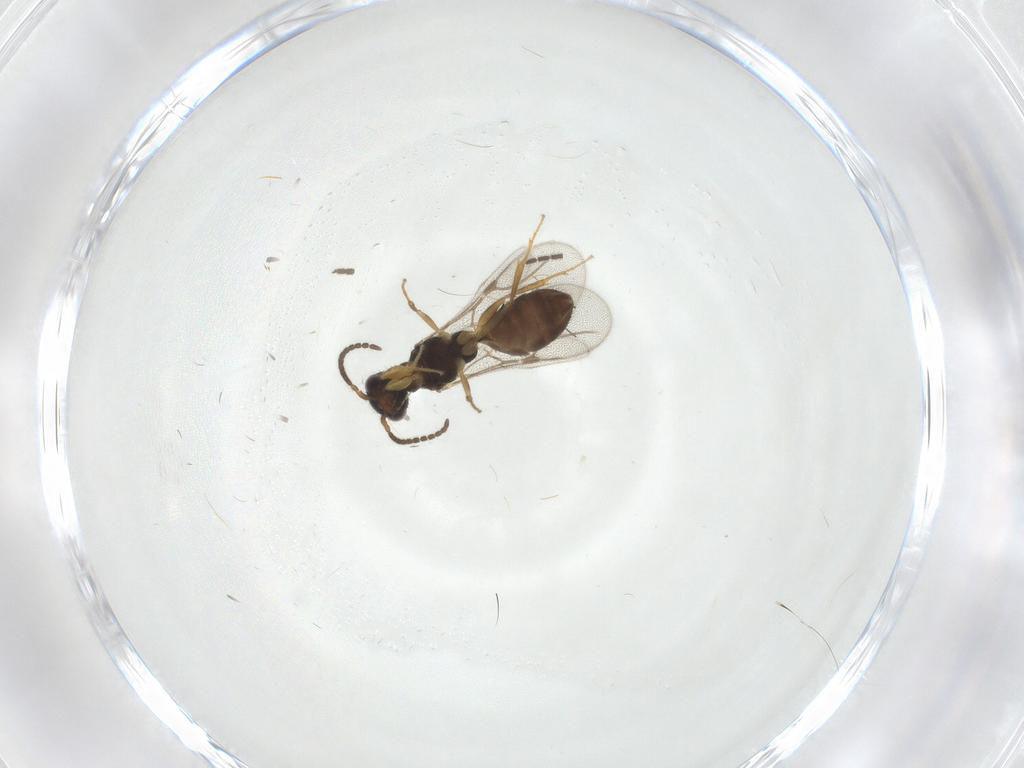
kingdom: Animalia
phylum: Arthropoda
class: Insecta
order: Hymenoptera
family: Bethylidae
